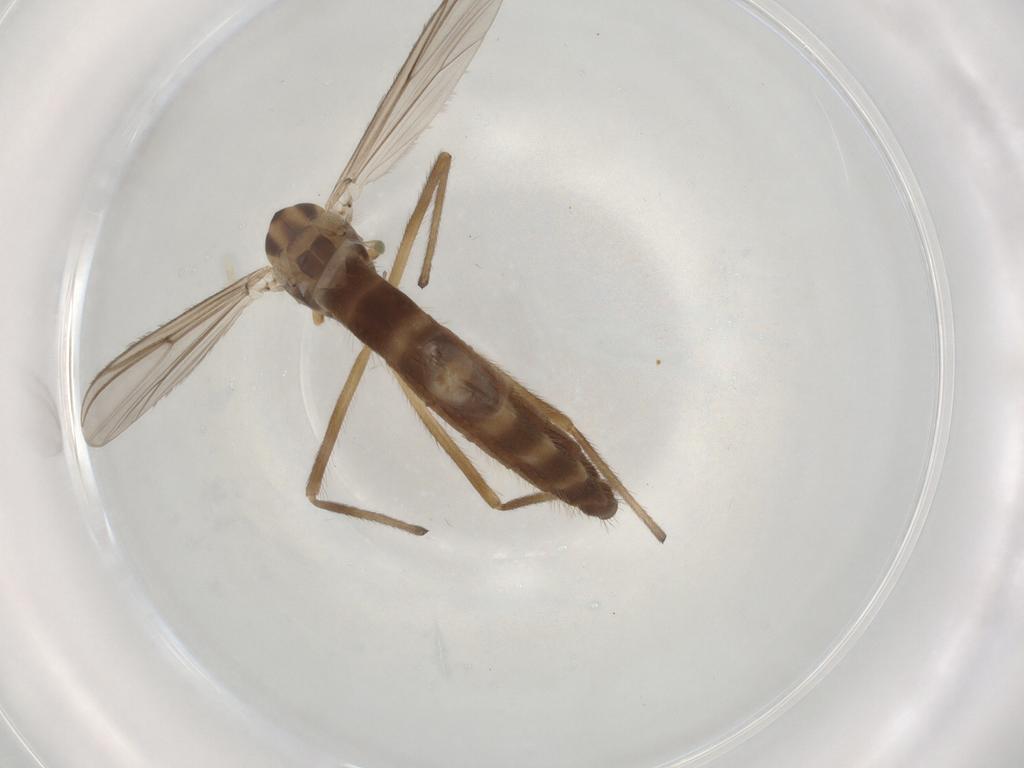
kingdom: Animalia
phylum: Arthropoda
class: Insecta
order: Diptera
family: Chironomidae
